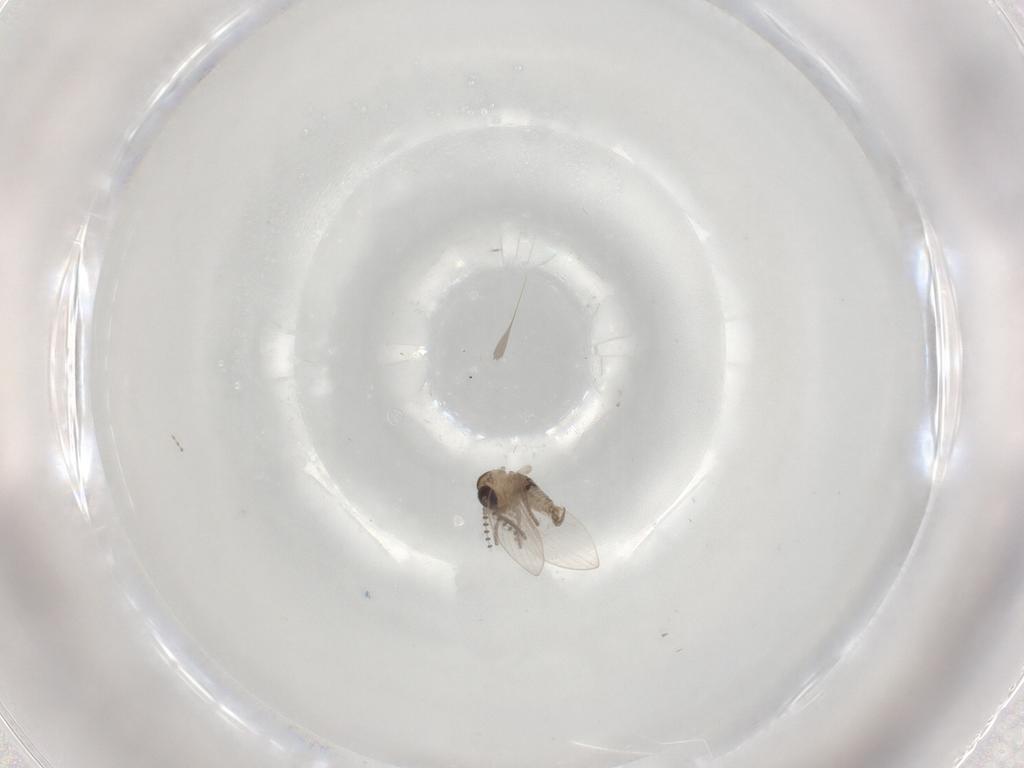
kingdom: Animalia
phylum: Arthropoda
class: Insecta
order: Diptera
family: Psychodidae
